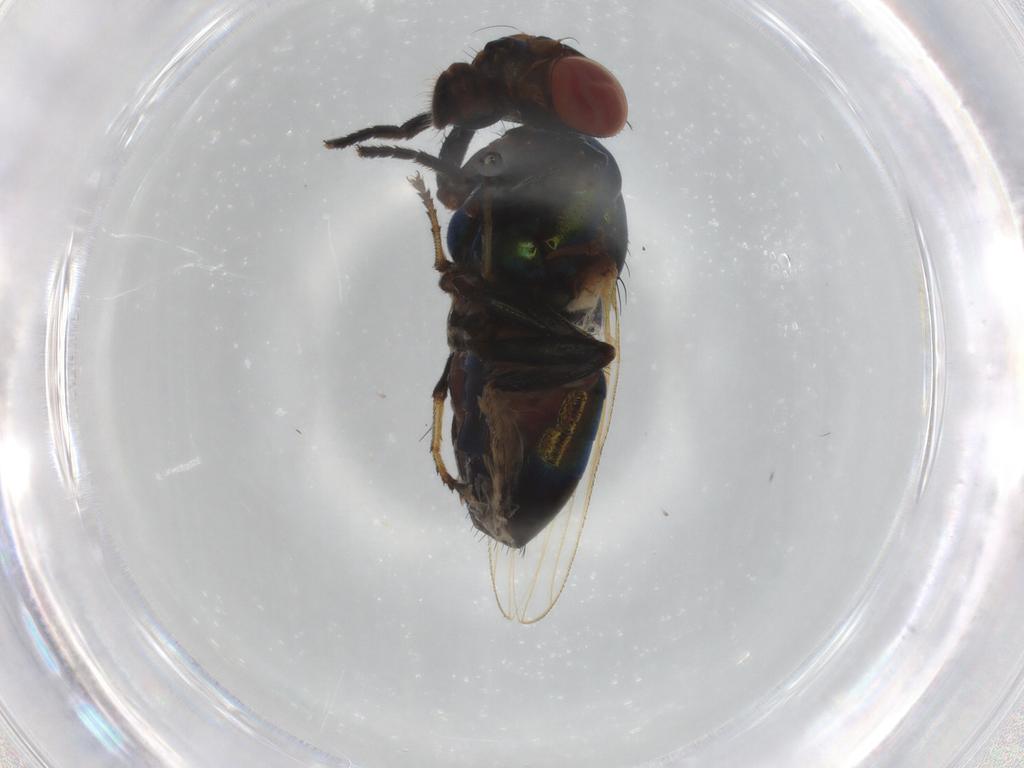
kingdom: Animalia
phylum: Arthropoda
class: Insecta
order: Diptera
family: Ulidiidae
